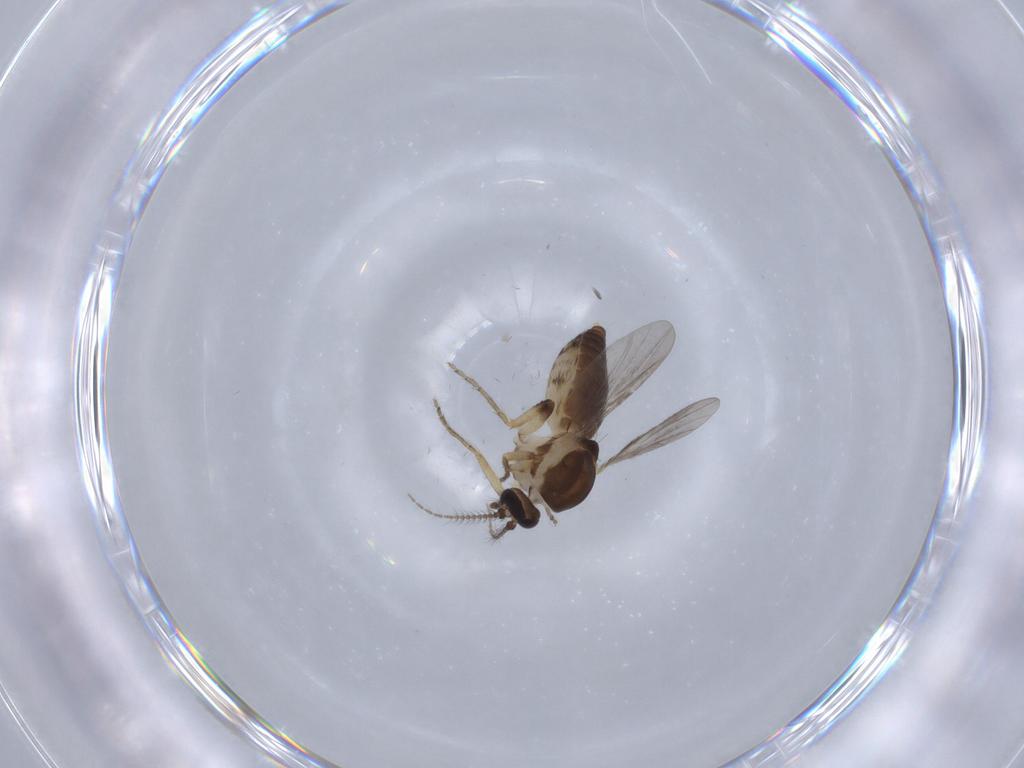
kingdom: Animalia
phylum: Arthropoda
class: Insecta
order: Diptera
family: Ceratopogonidae
